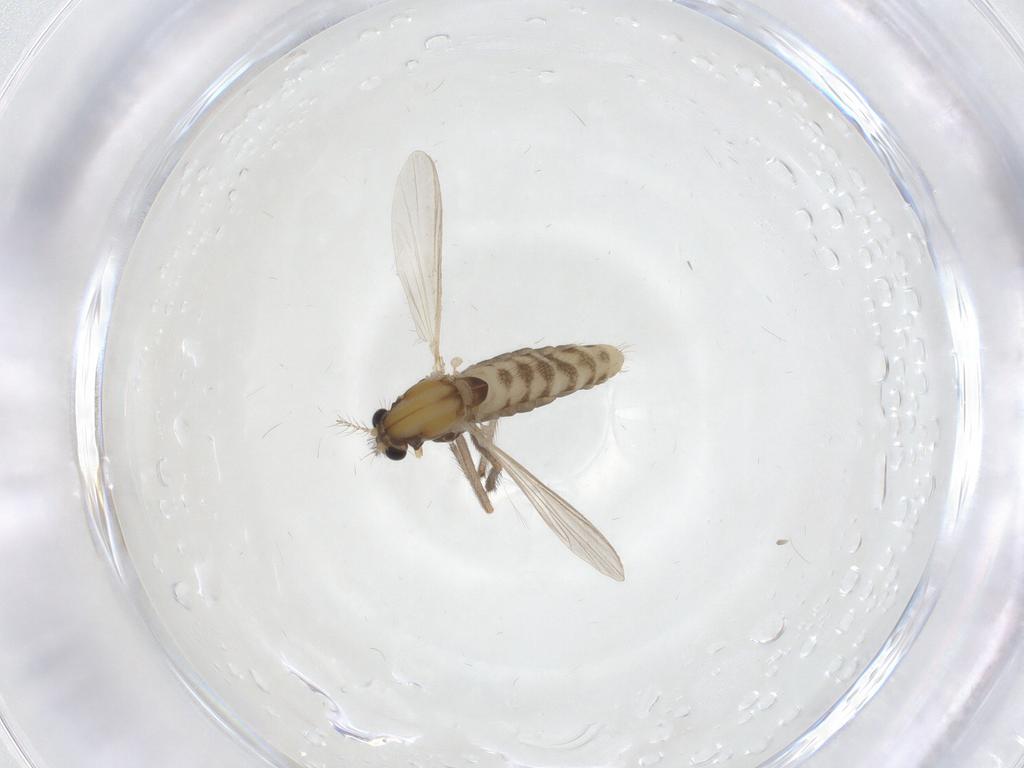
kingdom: Animalia
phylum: Arthropoda
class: Insecta
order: Diptera
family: Chironomidae
